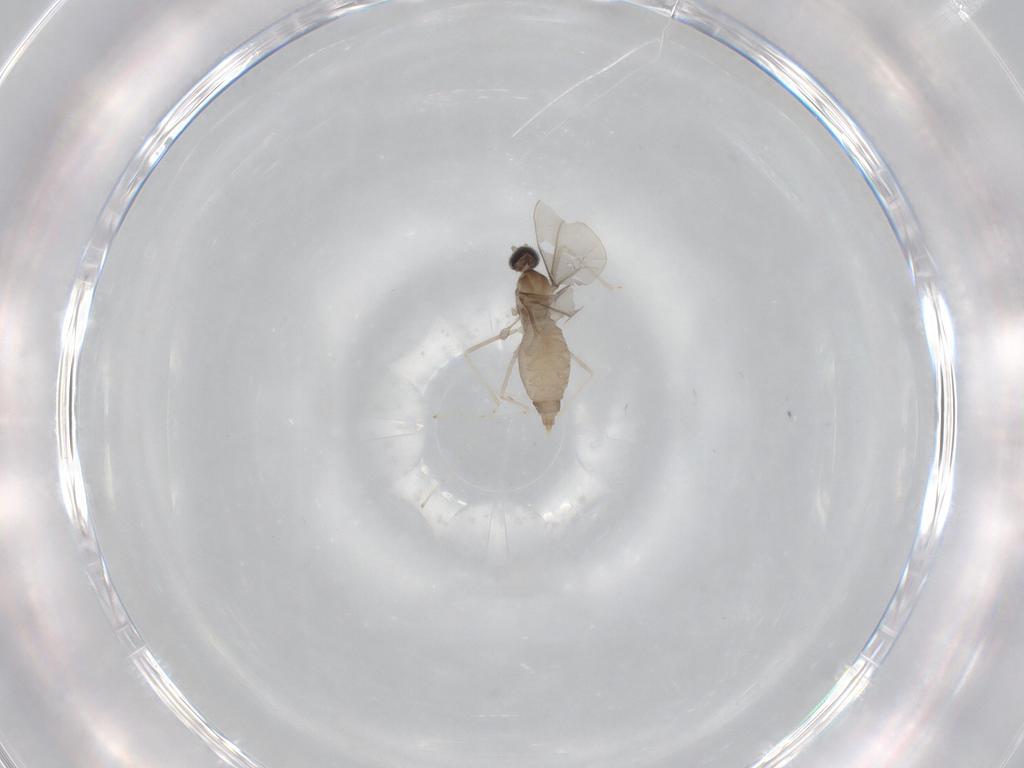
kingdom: Animalia
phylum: Arthropoda
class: Insecta
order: Diptera
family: Cecidomyiidae
